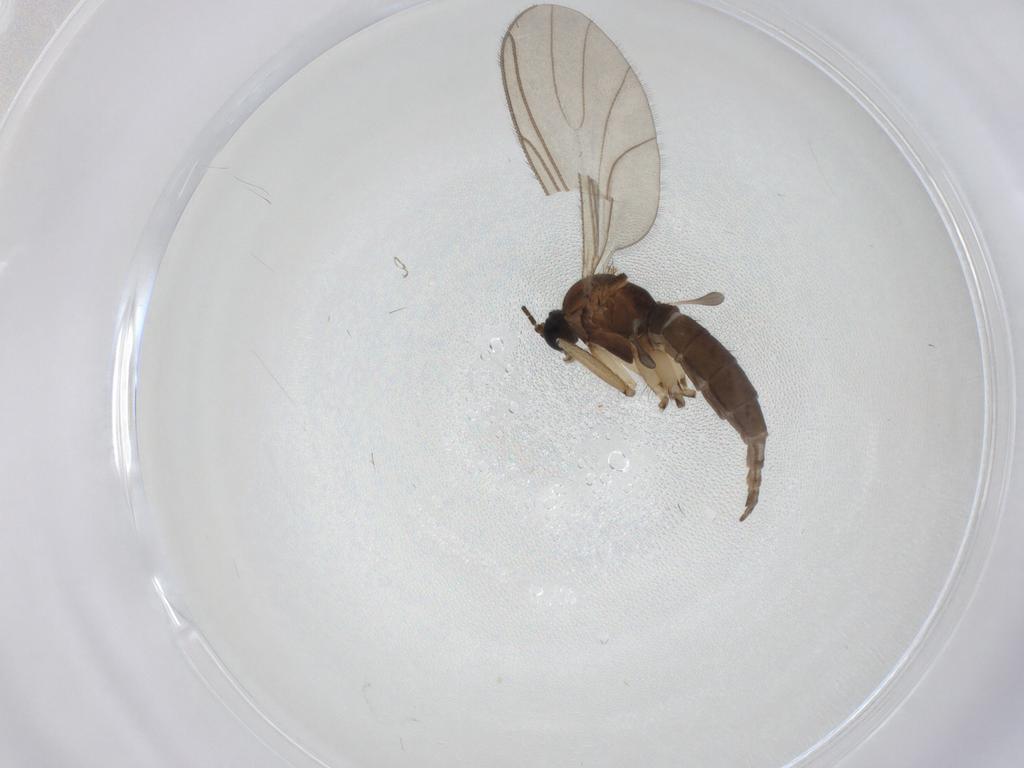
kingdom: Animalia
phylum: Arthropoda
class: Insecta
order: Diptera
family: Sciaridae
